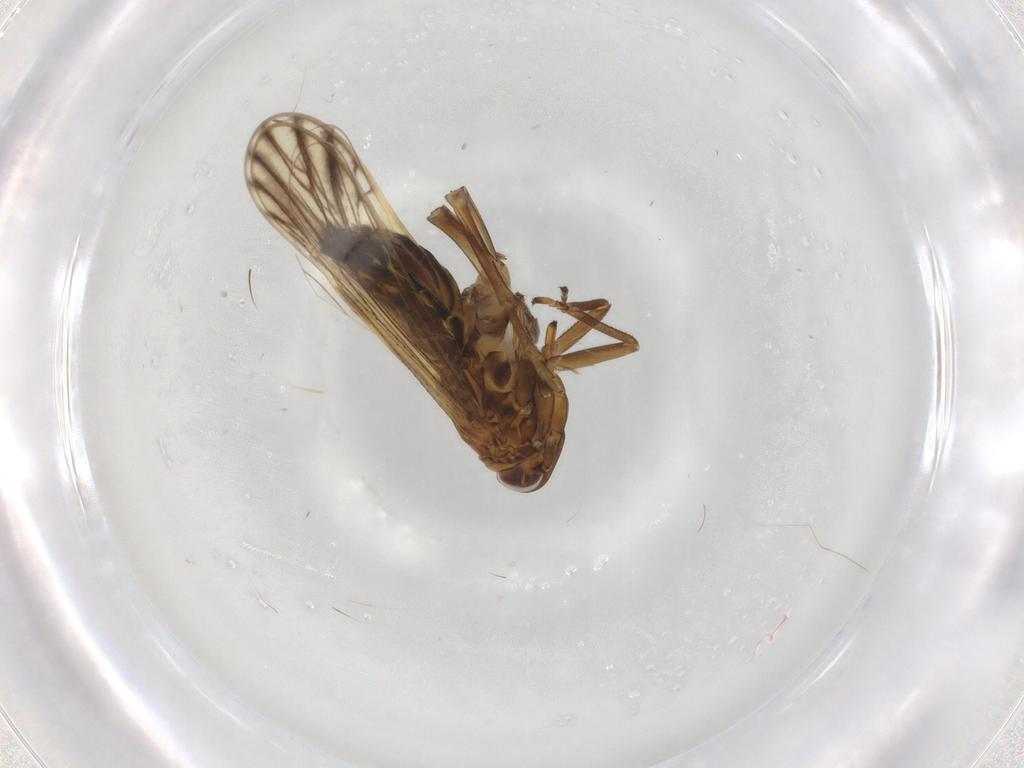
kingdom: Animalia
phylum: Arthropoda
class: Insecta
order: Hemiptera
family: Delphacidae
